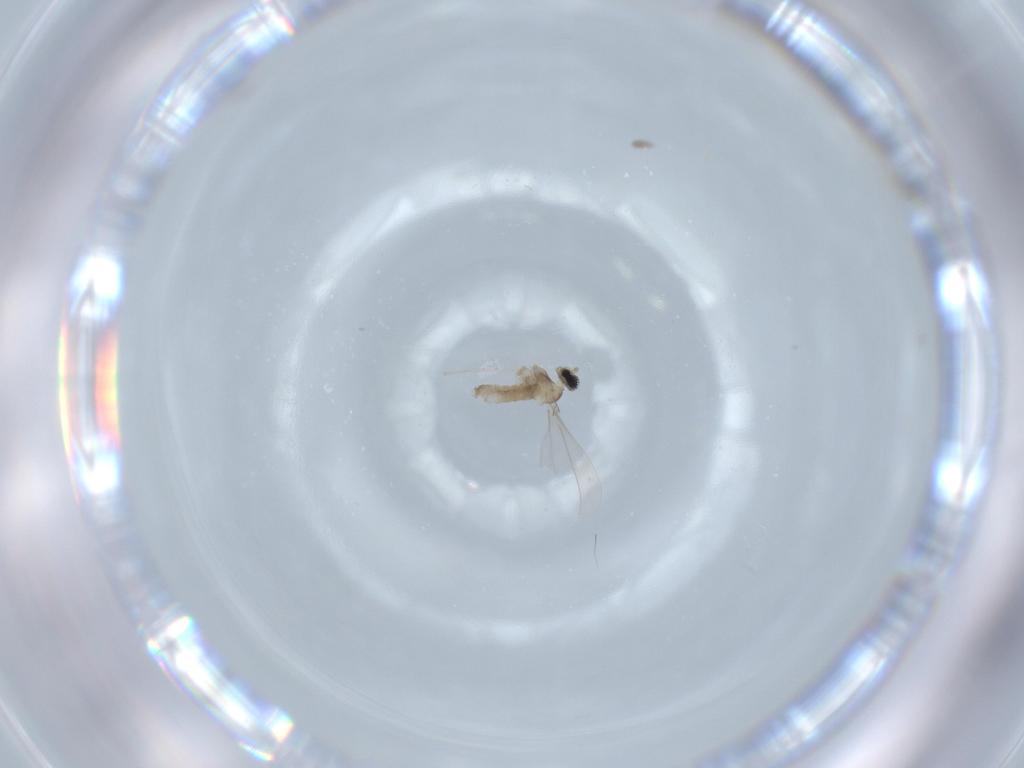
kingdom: Animalia
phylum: Arthropoda
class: Insecta
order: Diptera
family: Cecidomyiidae
